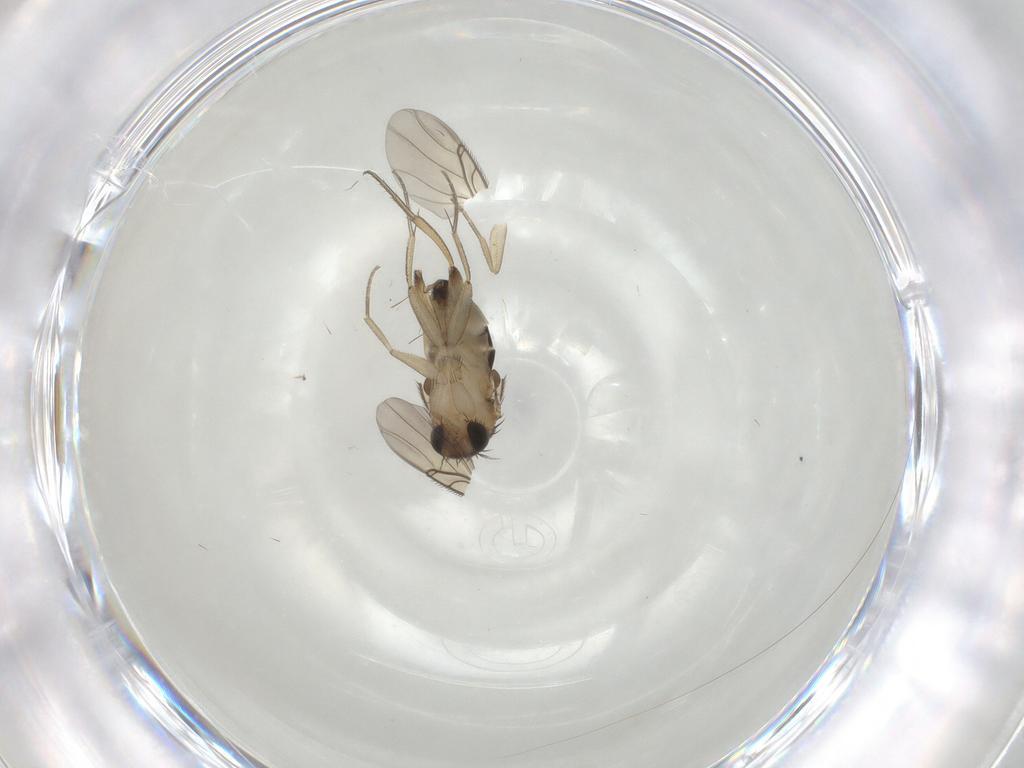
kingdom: Animalia
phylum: Arthropoda
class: Insecta
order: Diptera
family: Phoridae
